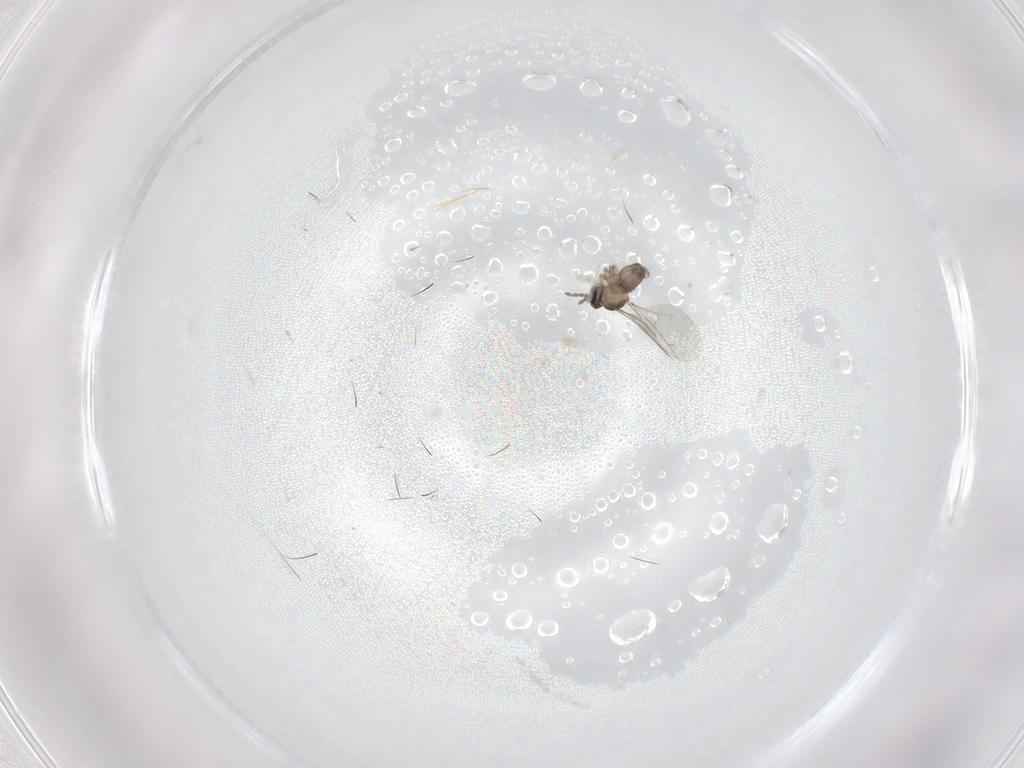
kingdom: Animalia
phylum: Arthropoda
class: Insecta
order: Diptera
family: Cecidomyiidae
